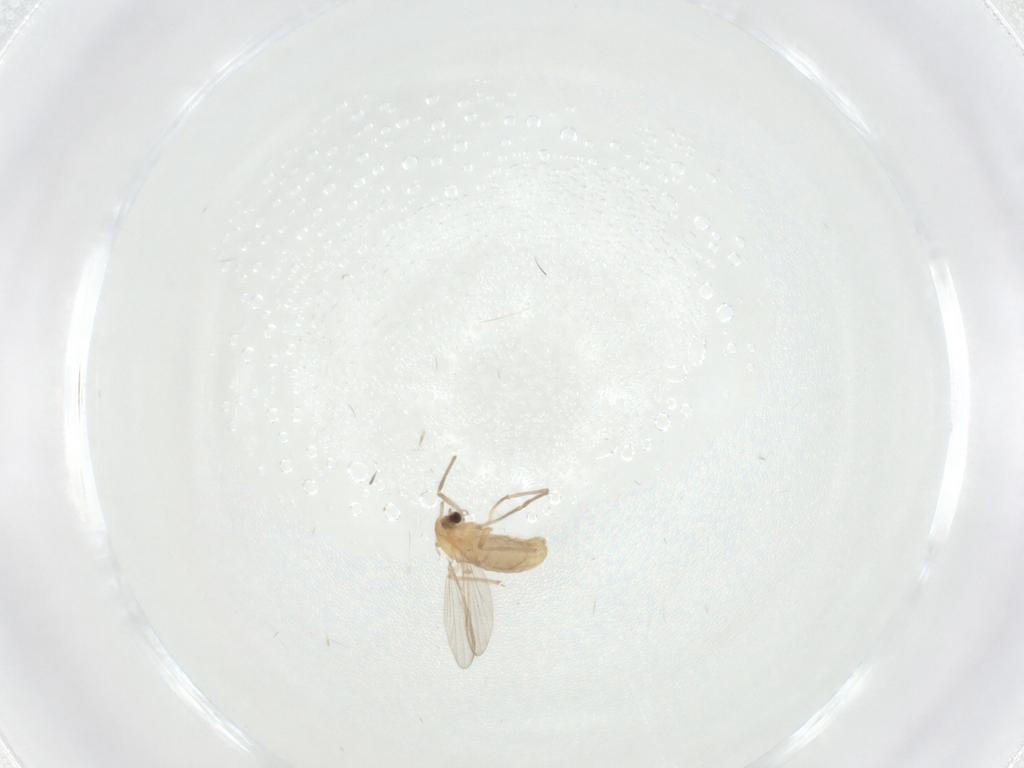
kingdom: Animalia
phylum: Arthropoda
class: Insecta
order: Diptera
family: Chironomidae
